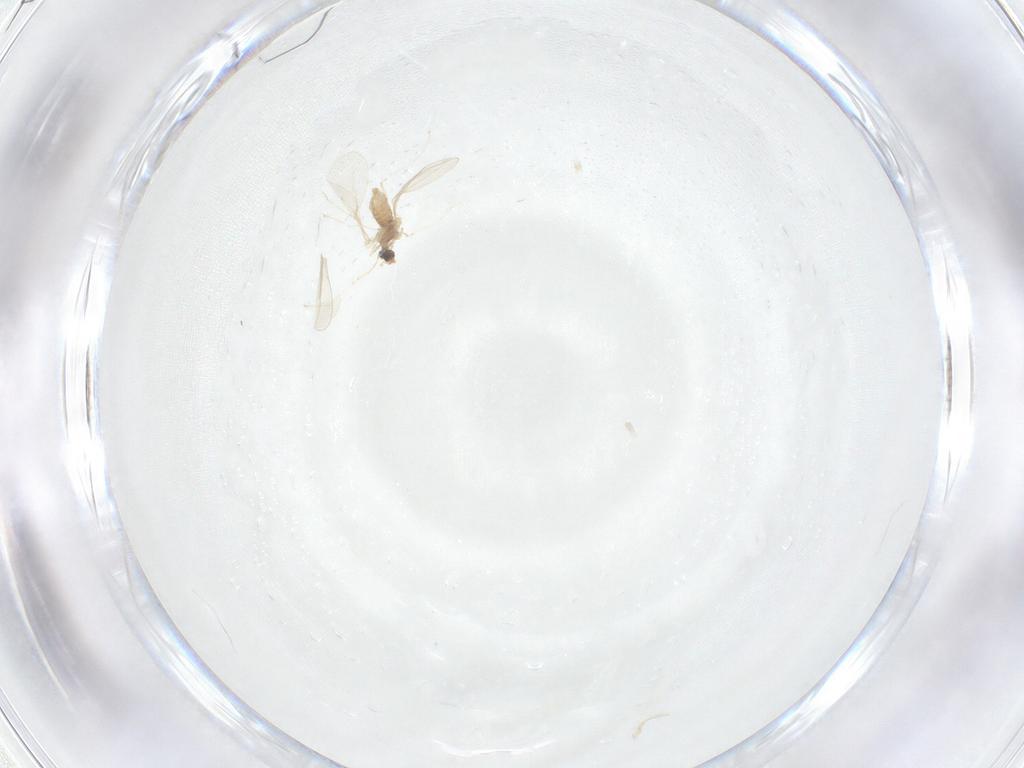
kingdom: Animalia
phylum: Arthropoda
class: Insecta
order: Diptera
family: Cecidomyiidae
